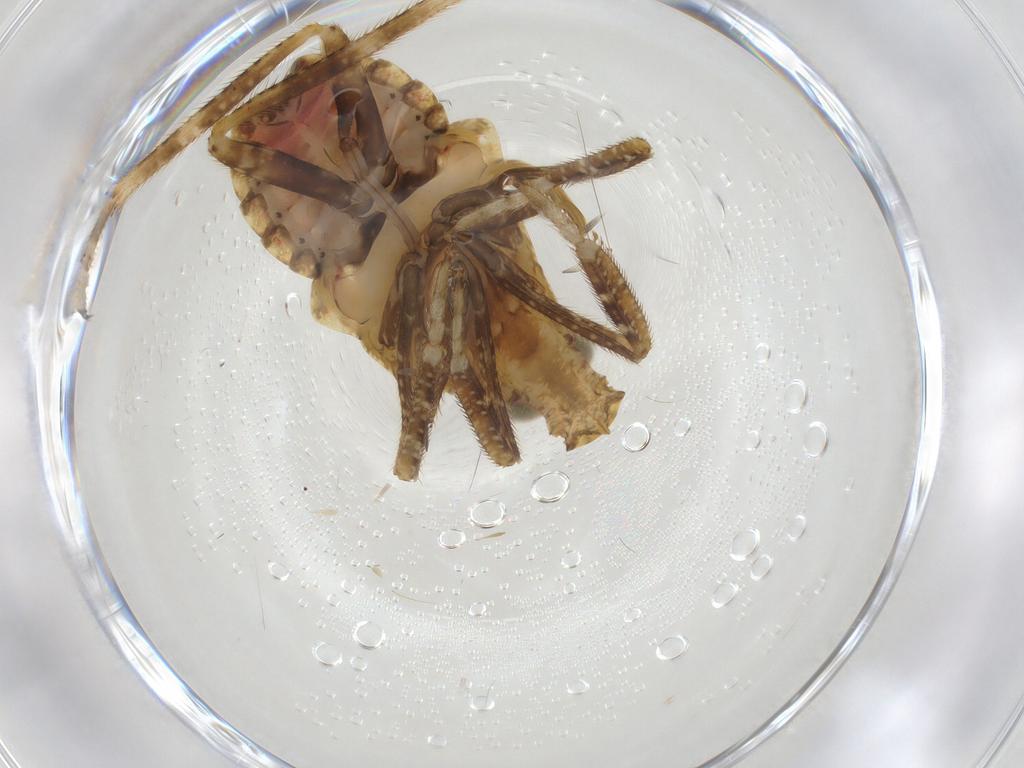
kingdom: Animalia
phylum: Arthropoda
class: Insecta
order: Hemiptera
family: Fulgoridae
